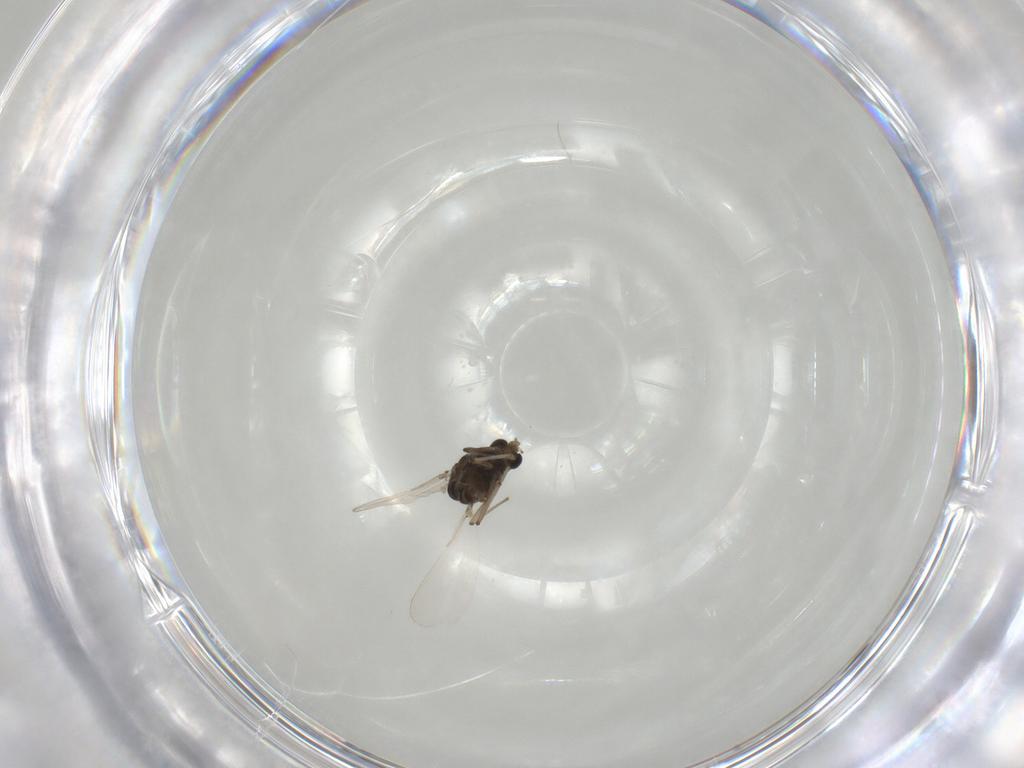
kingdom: Animalia
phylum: Arthropoda
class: Insecta
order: Diptera
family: Chironomidae
